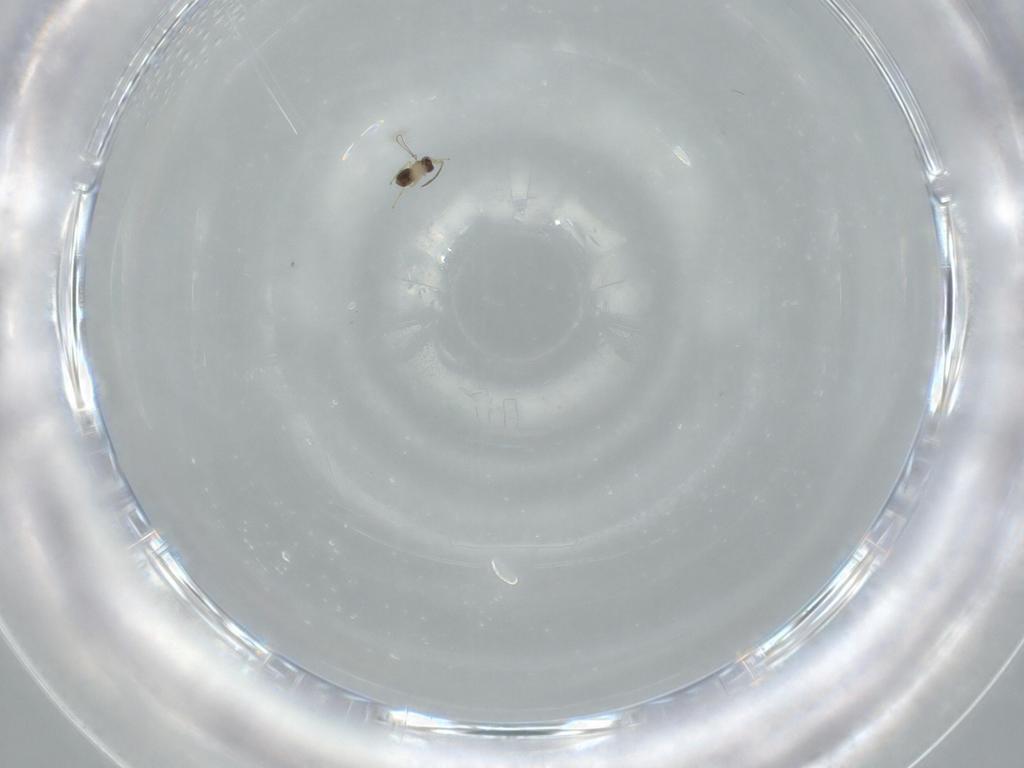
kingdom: Animalia
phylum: Arthropoda
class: Insecta
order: Hymenoptera
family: Mymaridae
